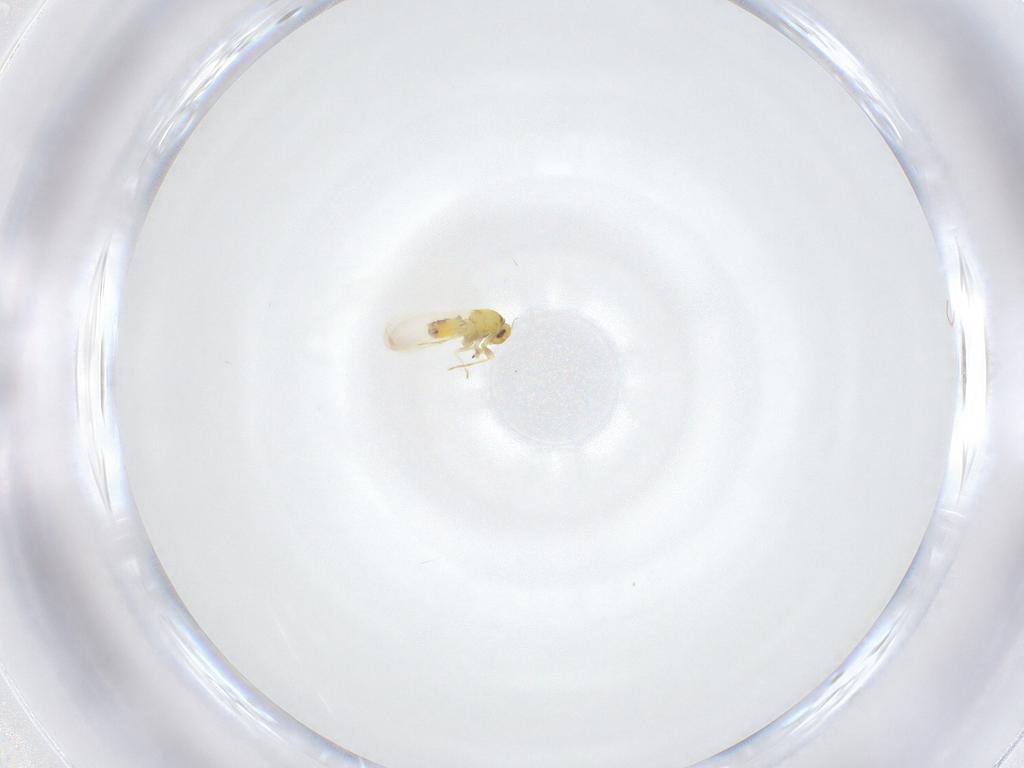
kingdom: Animalia
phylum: Arthropoda
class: Insecta
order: Hemiptera
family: Aleyrodidae
